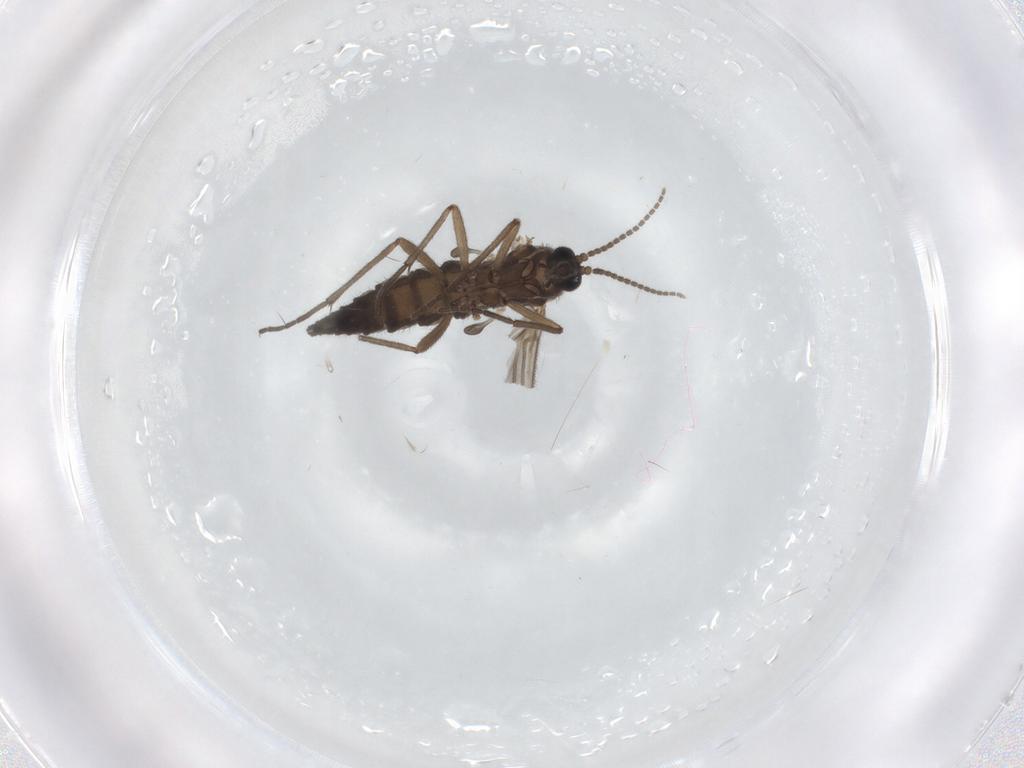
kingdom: Animalia
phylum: Arthropoda
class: Insecta
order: Diptera
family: Sciaridae
